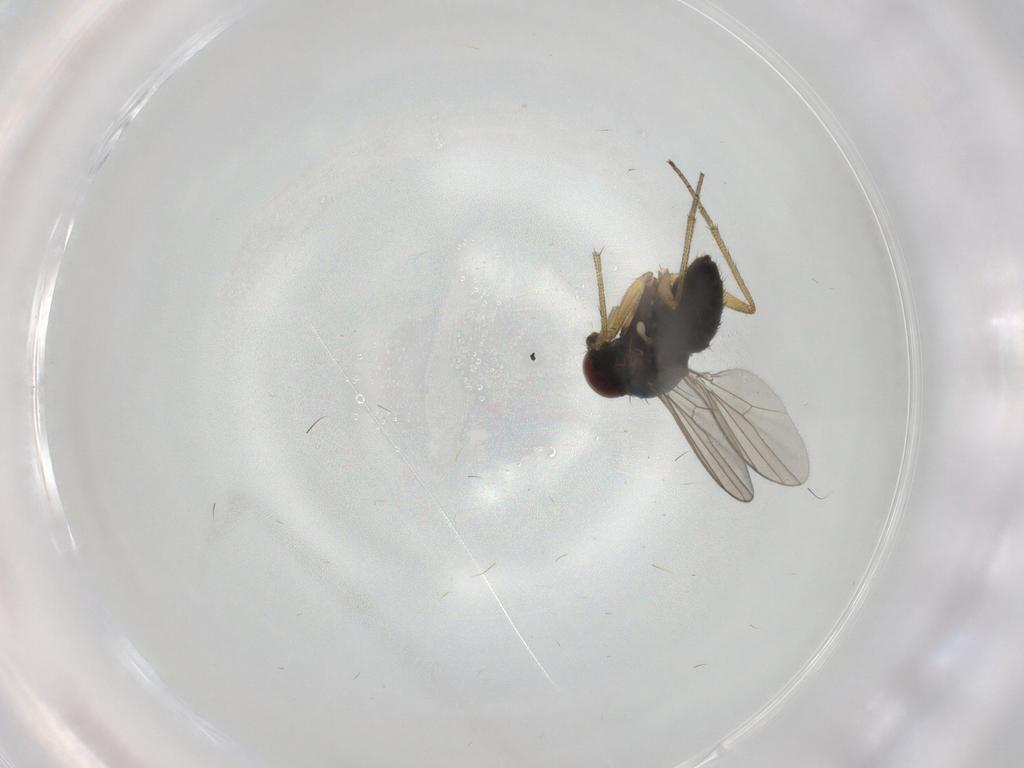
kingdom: Animalia
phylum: Arthropoda
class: Insecta
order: Diptera
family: Dolichopodidae
